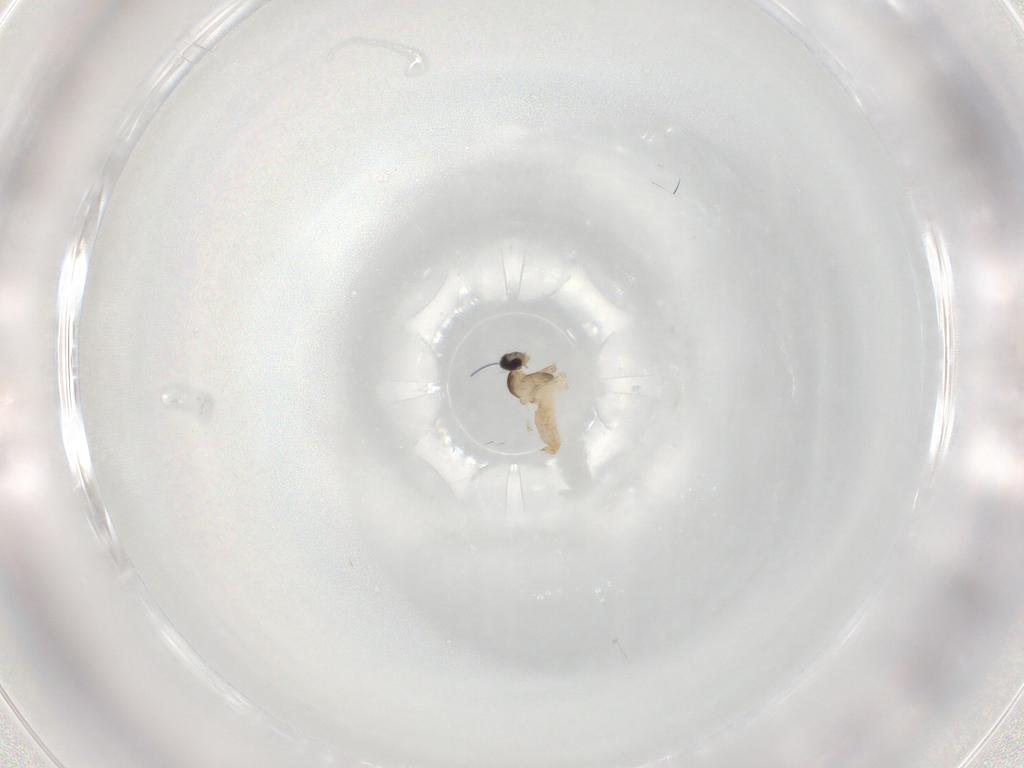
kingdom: Animalia
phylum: Arthropoda
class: Insecta
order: Diptera
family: Cecidomyiidae
